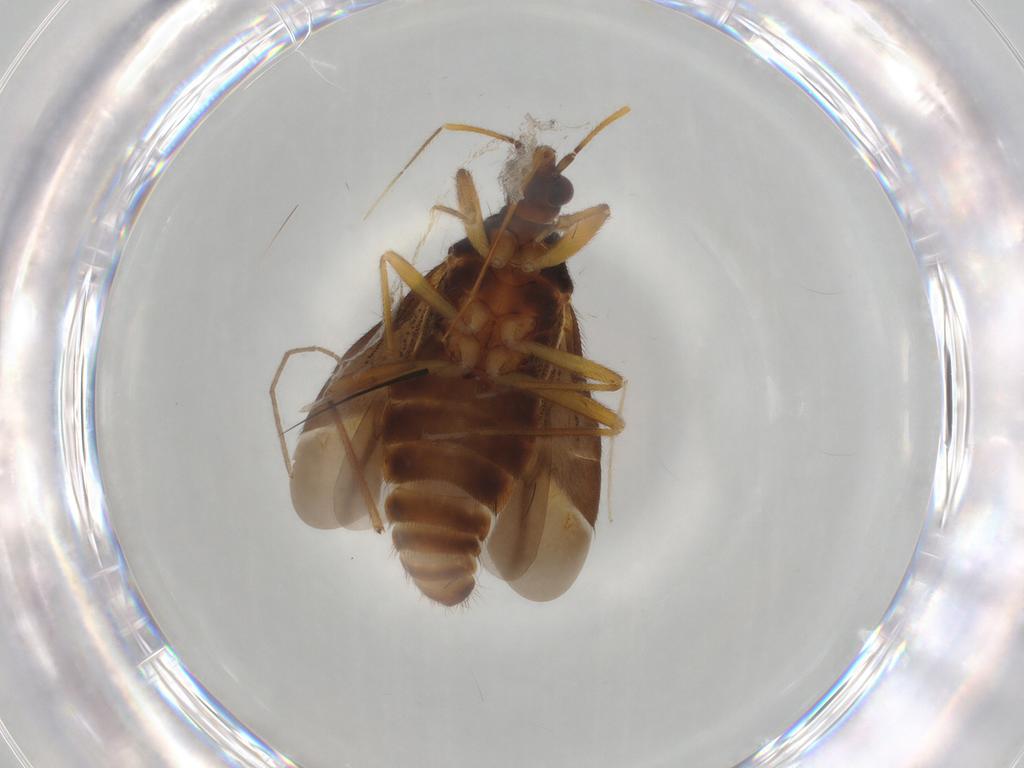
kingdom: Animalia
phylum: Arthropoda
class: Insecta
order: Hemiptera
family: Anthocoridae
